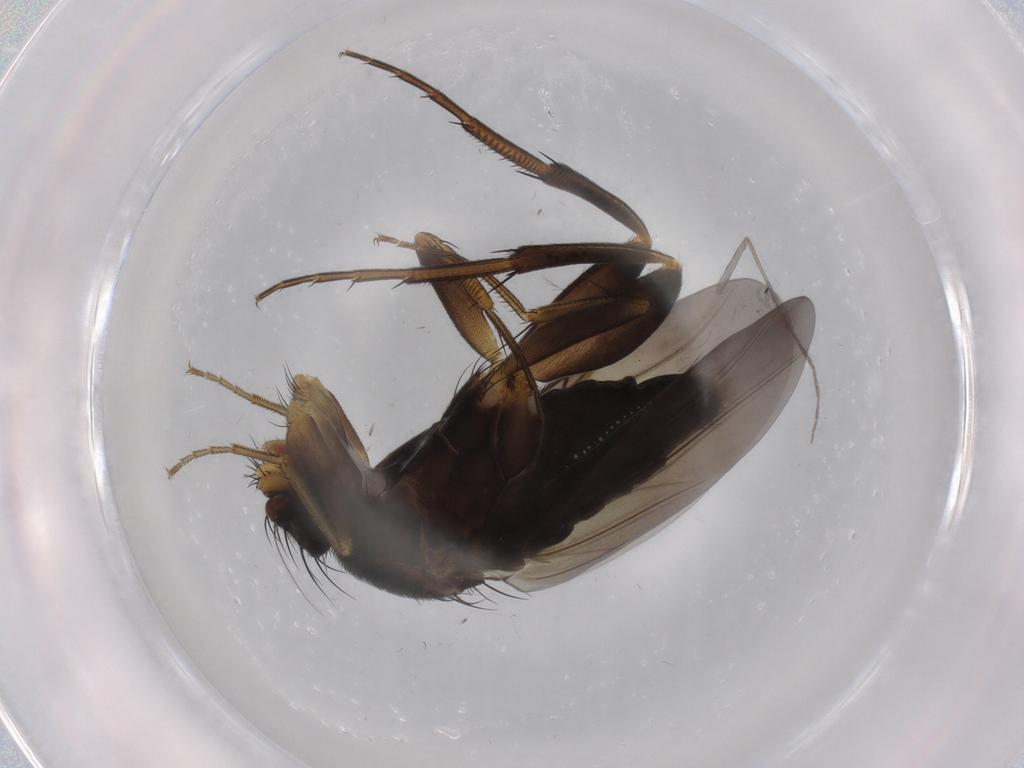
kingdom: Animalia
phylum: Arthropoda
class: Insecta
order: Diptera
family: Phoridae
